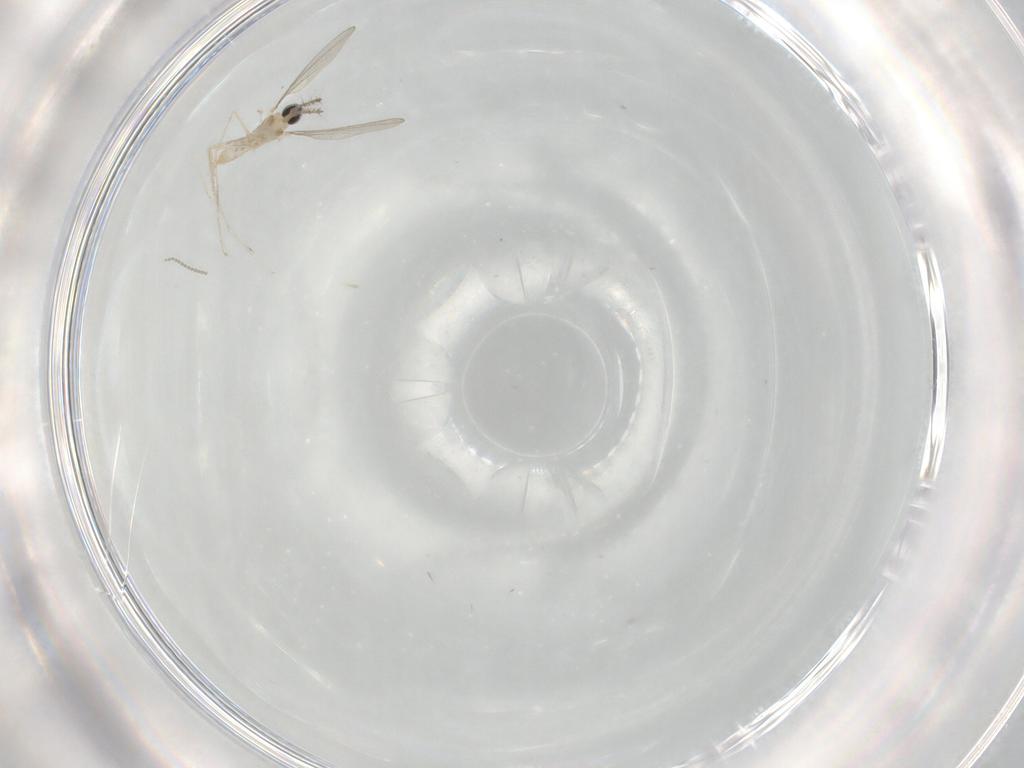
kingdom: Animalia
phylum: Arthropoda
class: Insecta
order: Diptera
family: Cecidomyiidae
